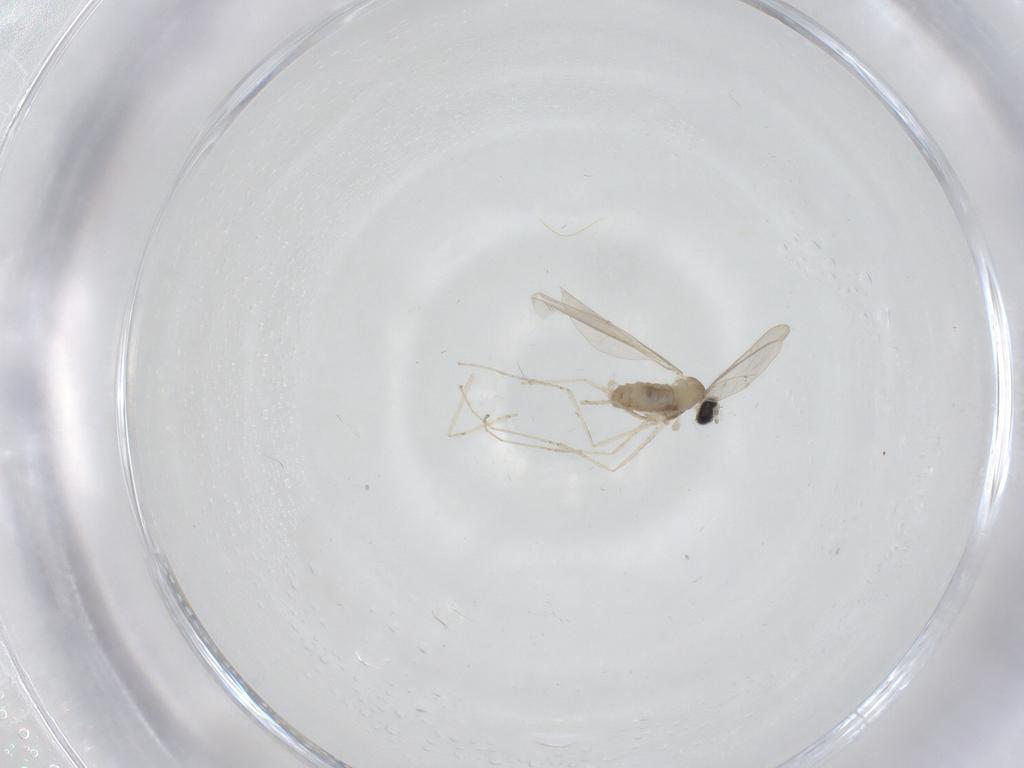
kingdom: Animalia
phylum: Arthropoda
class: Insecta
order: Diptera
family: Cecidomyiidae
